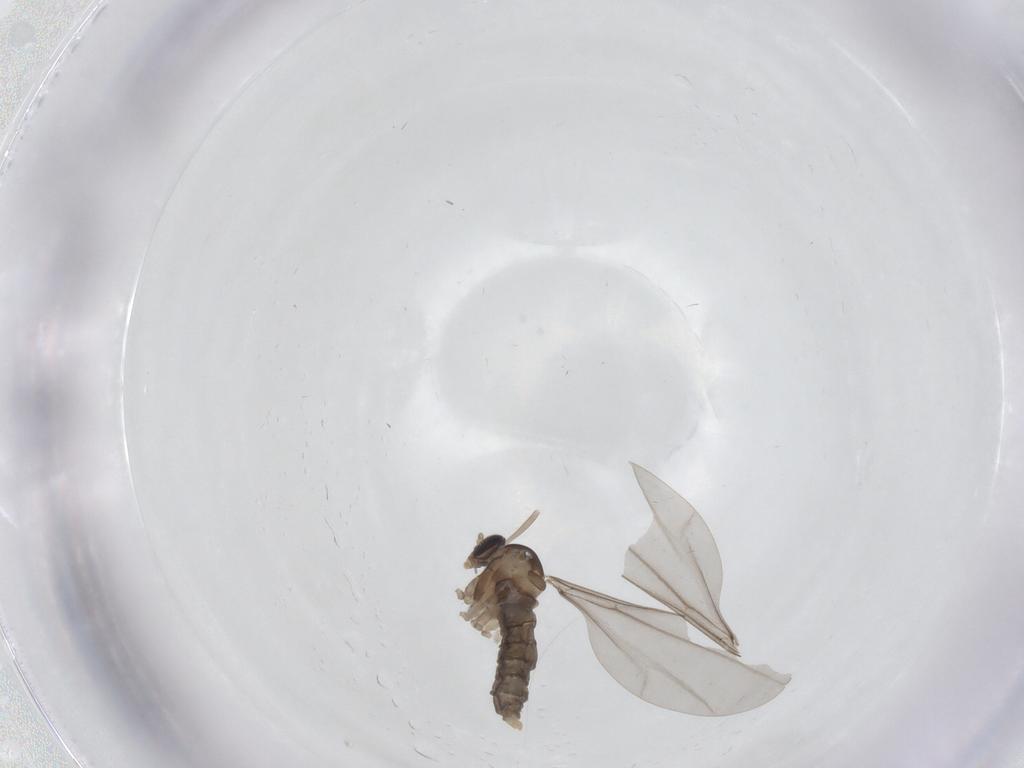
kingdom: Animalia
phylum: Arthropoda
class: Insecta
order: Diptera
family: Cecidomyiidae
